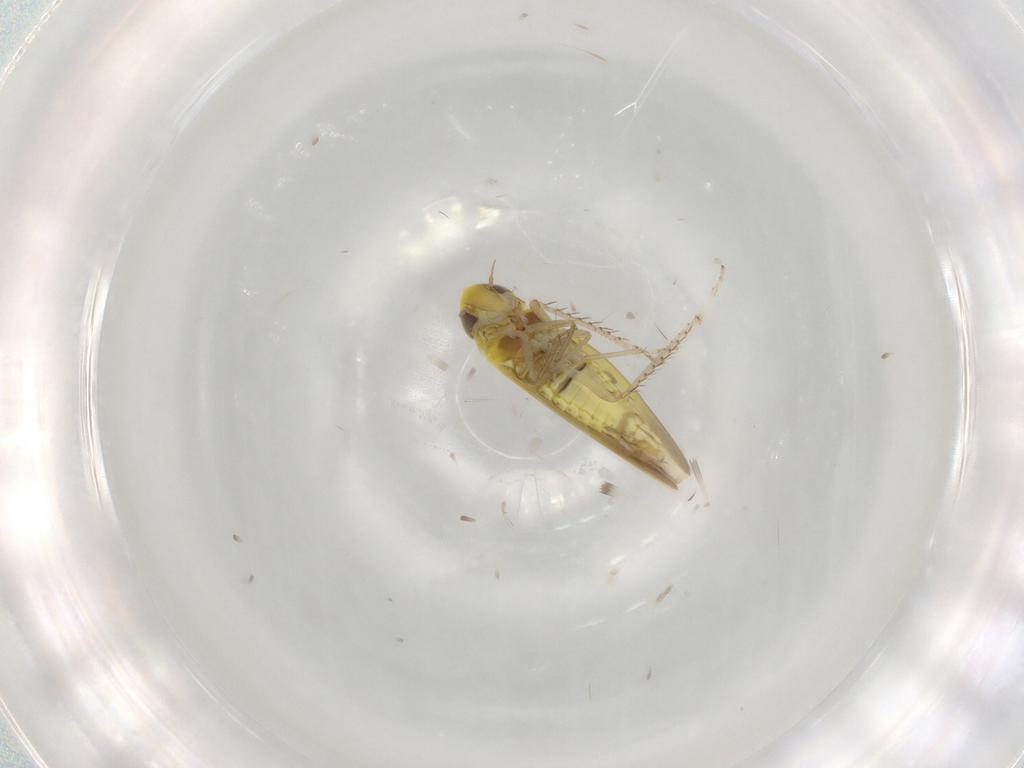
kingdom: Animalia
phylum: Arthropoda
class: Insecta
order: Hemiptera
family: Cicadellidae
